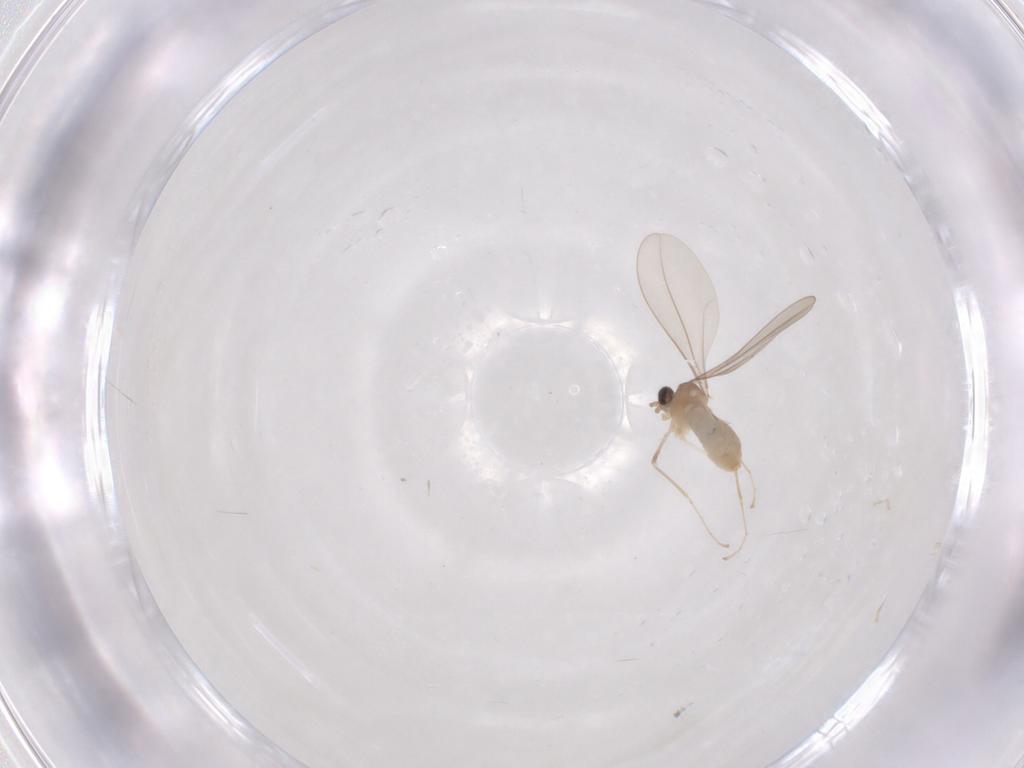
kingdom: Animalia
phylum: Arthropoda
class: Insecta
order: Diptera
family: Cecidomyiidae
